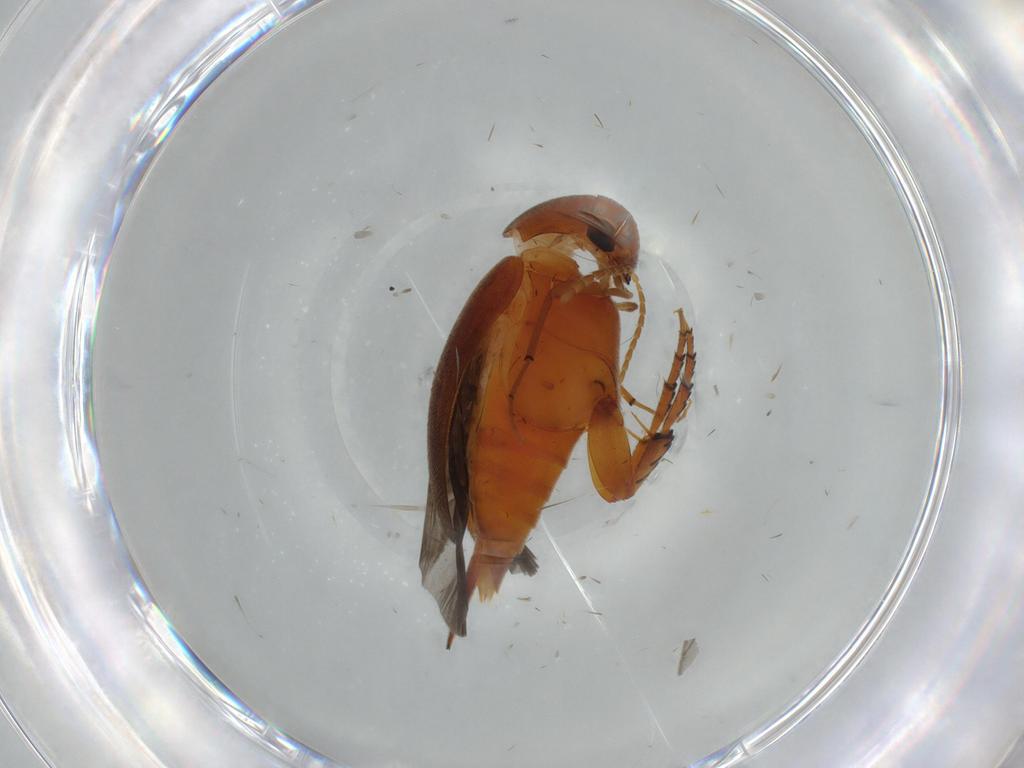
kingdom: Animalia
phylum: Arthropoda
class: Insecta
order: Coleoptera
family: Mordellidae
